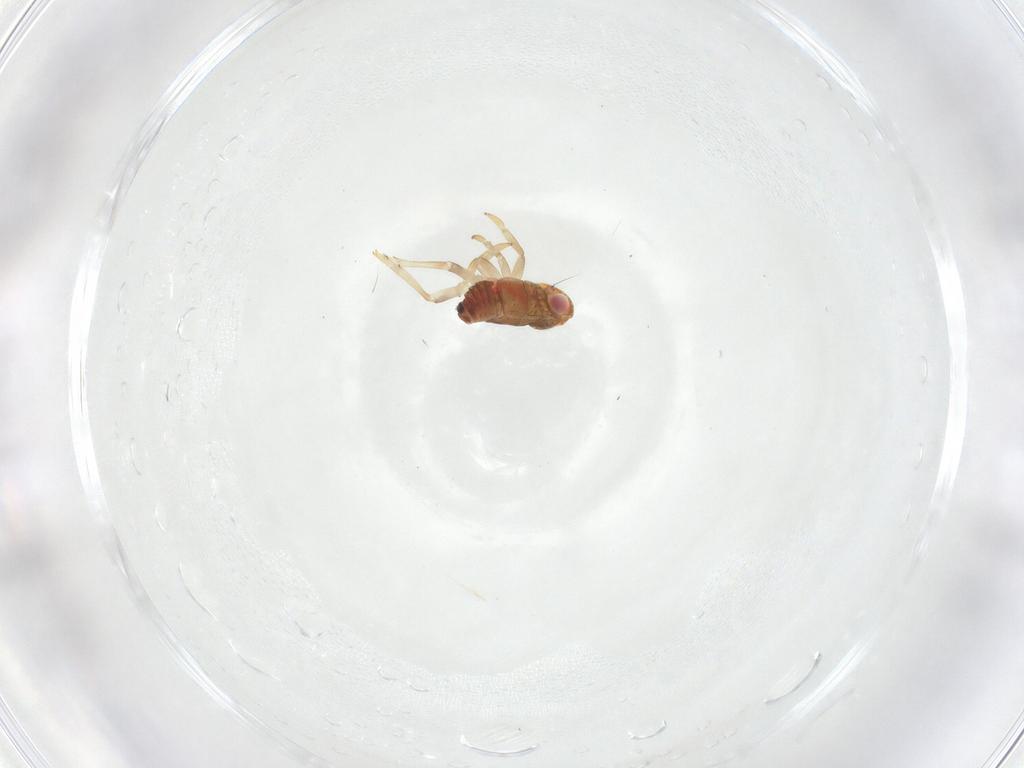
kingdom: Animalia
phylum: Arthropoda
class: Insecta
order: Hemiptera
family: Issidae
